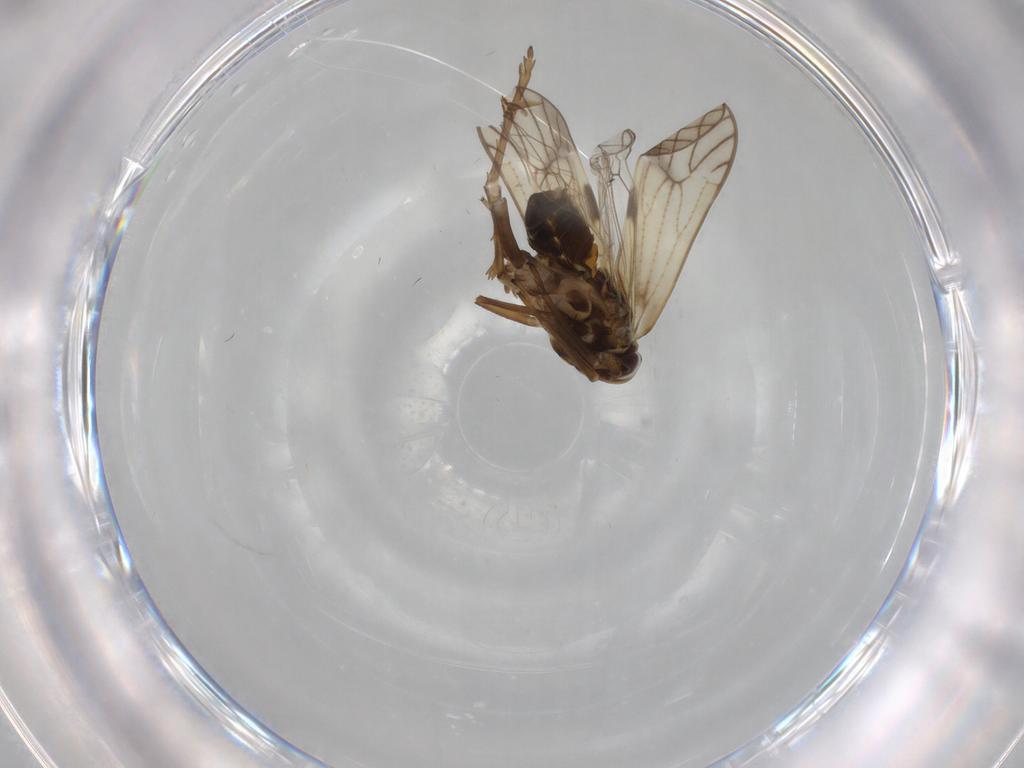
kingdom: Animalia
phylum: Arthropoda
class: Insecta
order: Hemiptera
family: Delphacidae
